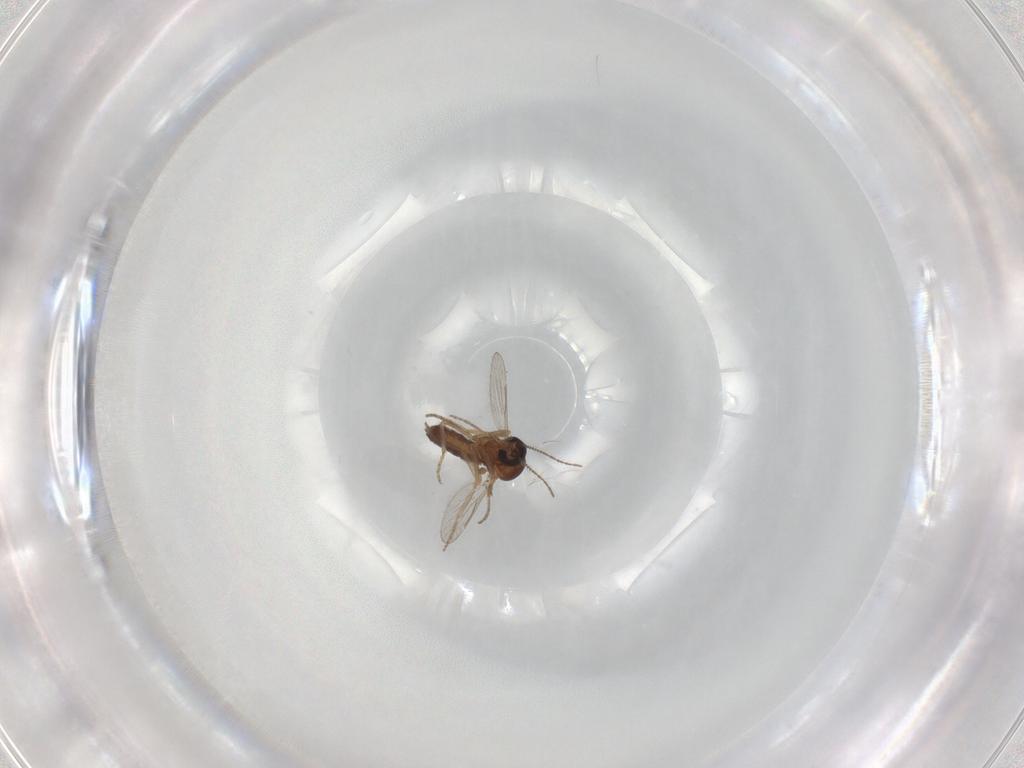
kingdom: Animalia
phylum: Arthropoda
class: Insecta
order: Diptera
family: Ceratopogonidae
